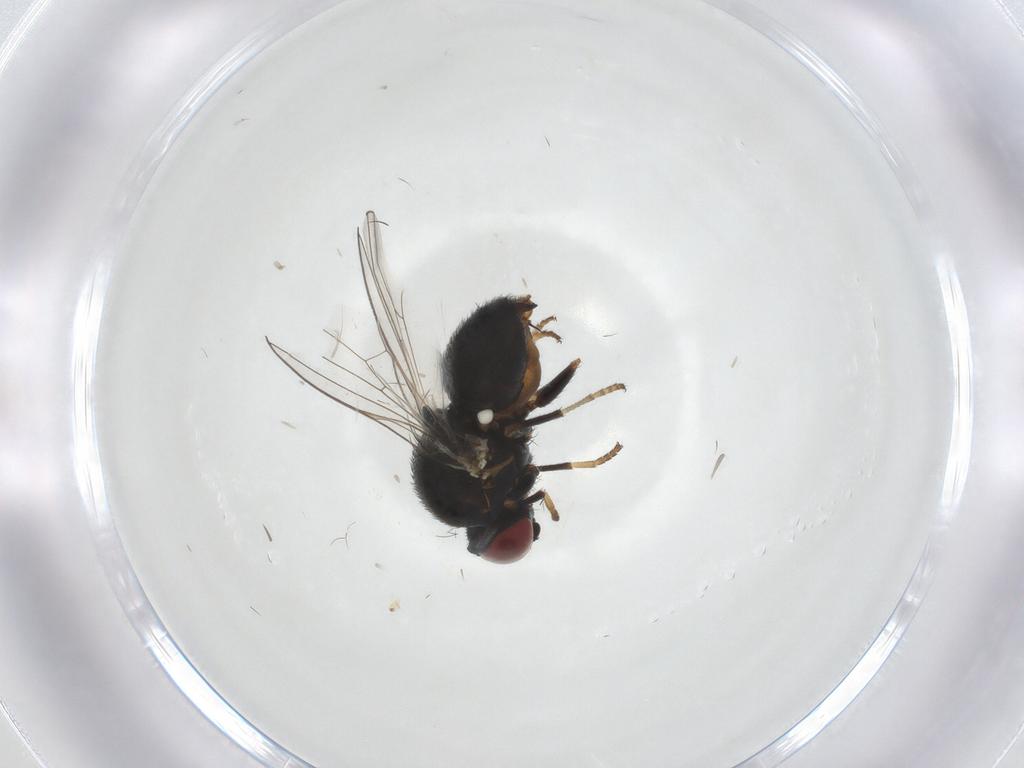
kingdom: Animalia
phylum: Arthropoda
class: Insecta
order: Diptera
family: Chamaemyiidae
